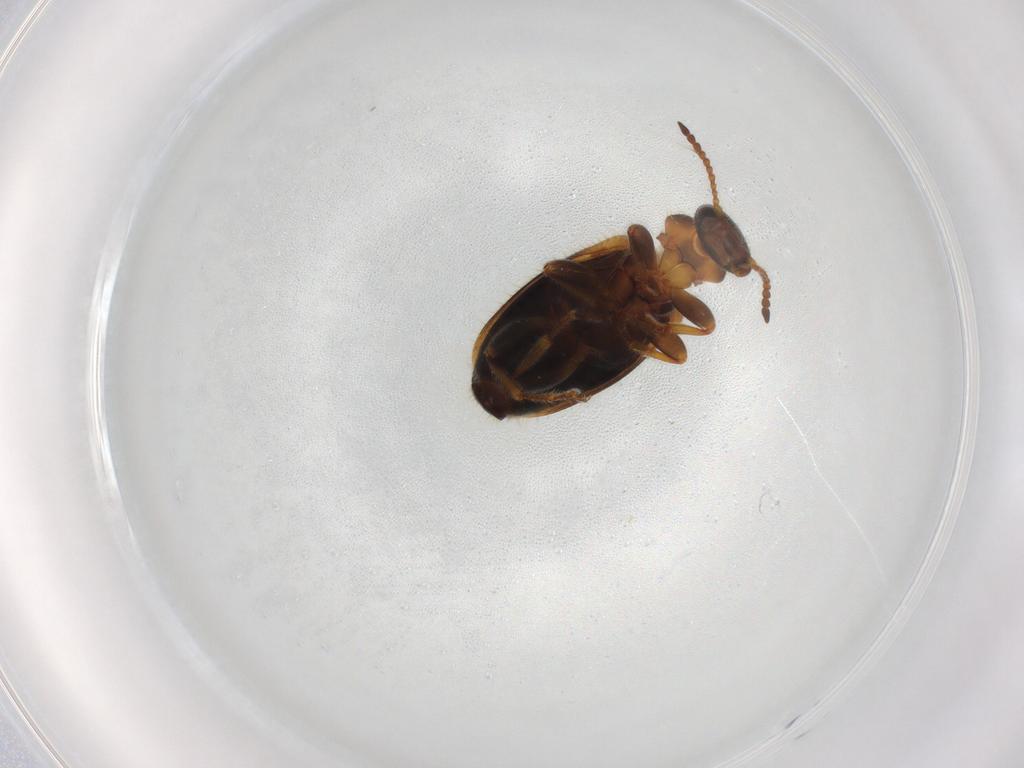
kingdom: Animalia
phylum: Arthropoda
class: Insecta
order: Coleoptera
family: Anthicidae
